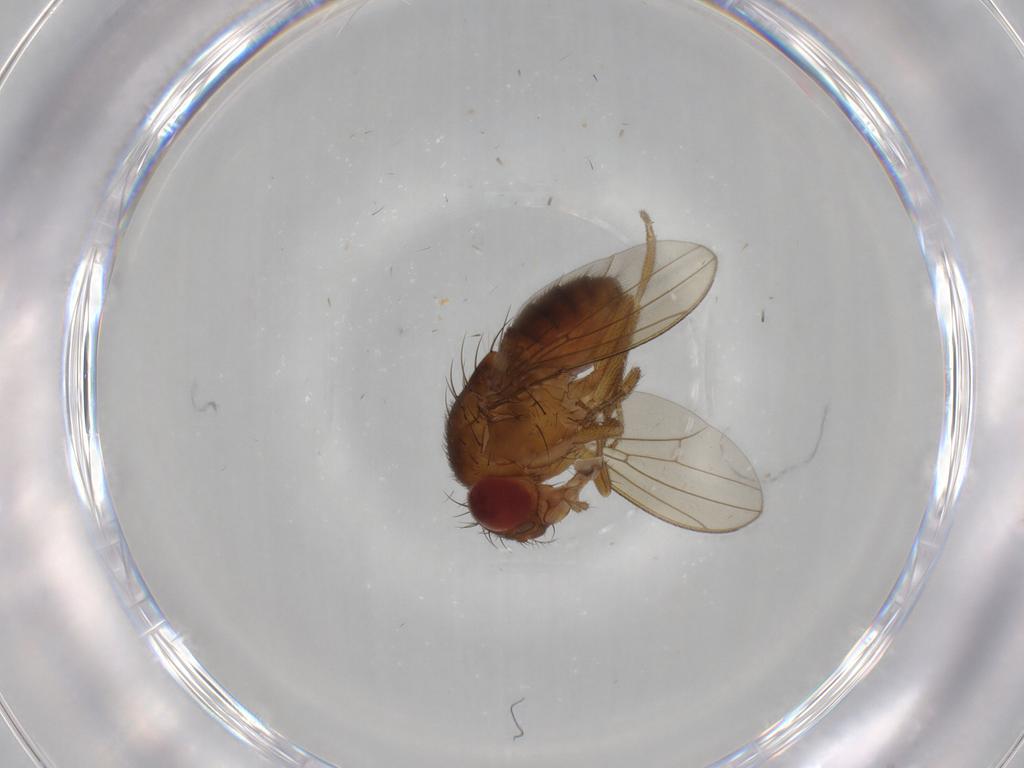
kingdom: Animalia
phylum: Arthropoda
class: Insecta
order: Diptera
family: Drosophilidae
